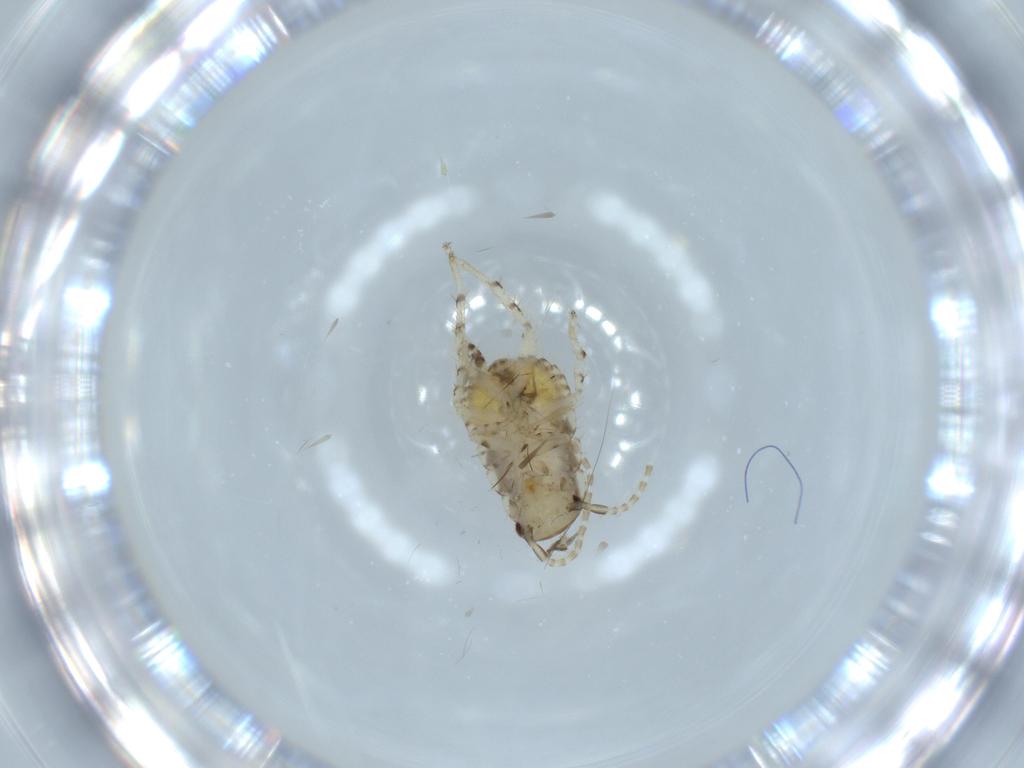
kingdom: Animalia
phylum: Arthropoda
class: Insecta
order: Blattodea
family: Ectobiidae
